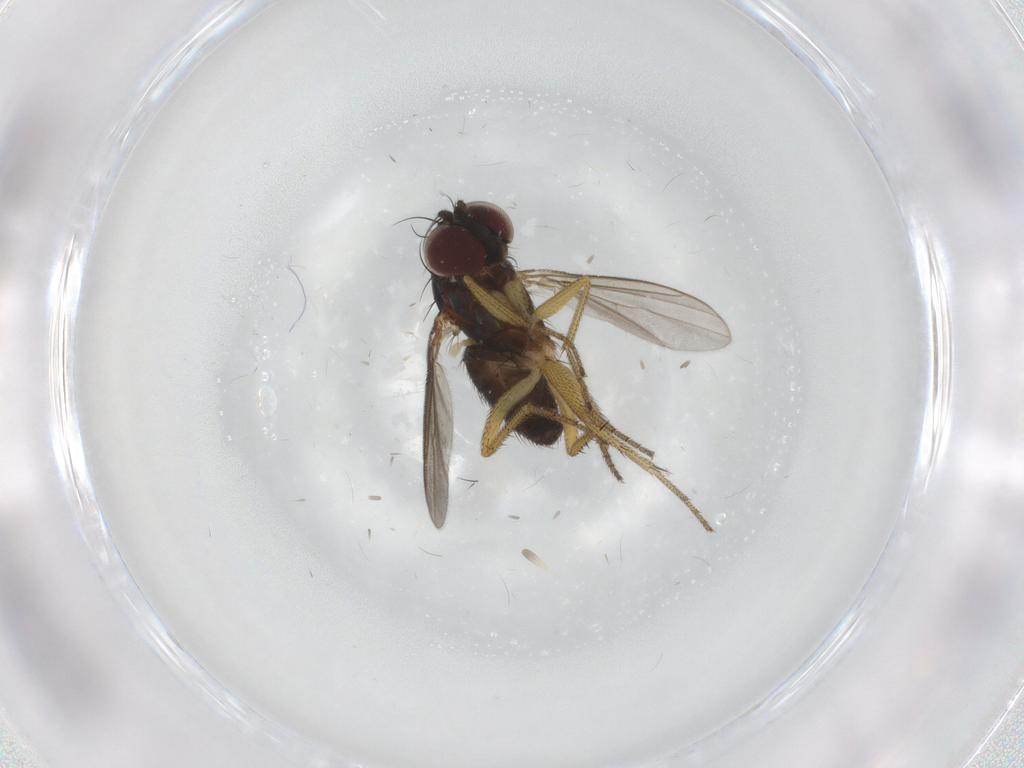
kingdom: Animalia
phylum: Arthropoda
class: Insecta
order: Diptera
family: Dolichopodidae
